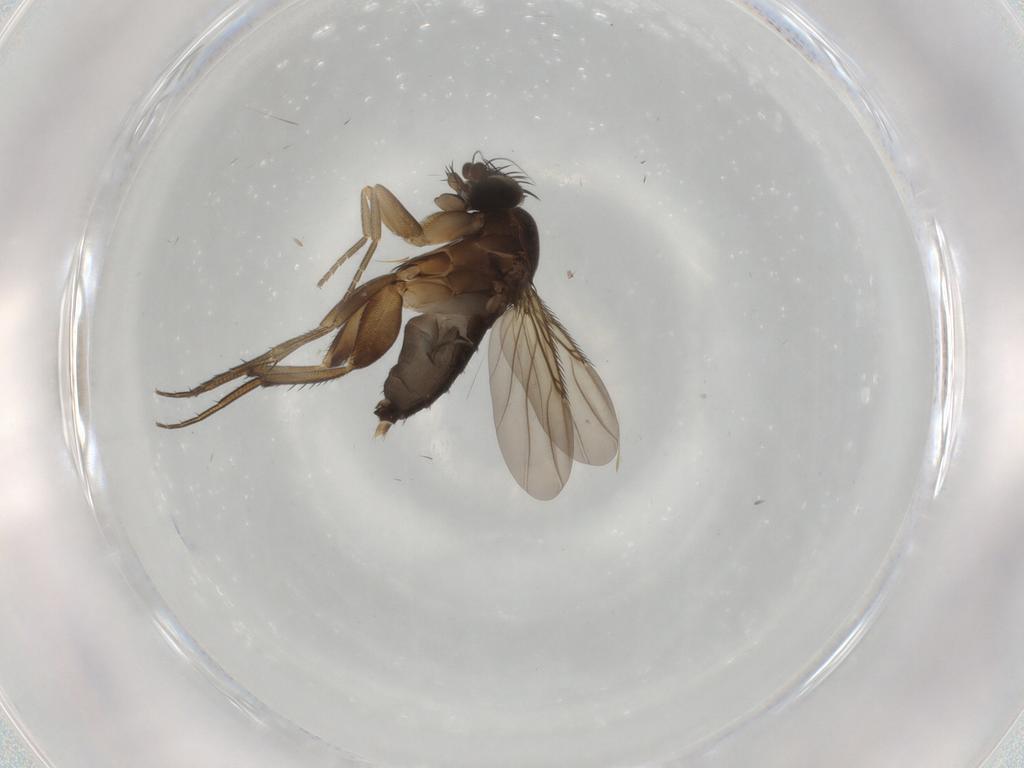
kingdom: Animalia
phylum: Arthropoda
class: Insecta
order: Diptera
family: Phoridae
